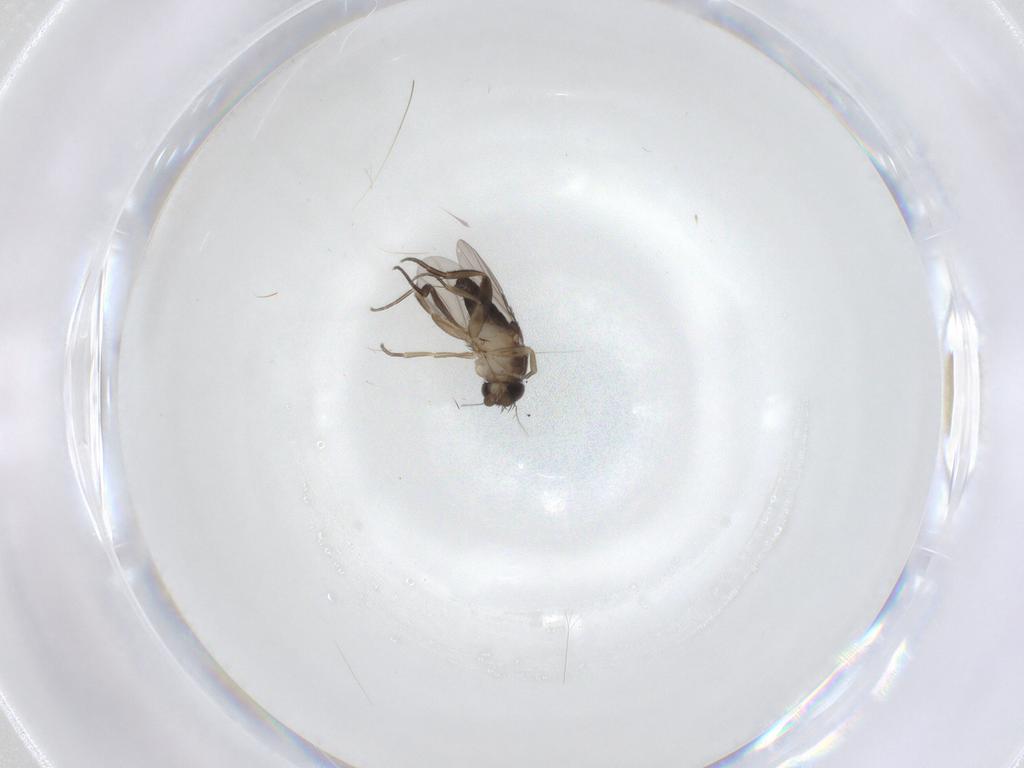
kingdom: Animalia
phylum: Arthropoda
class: Insecta
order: Diptera
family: Phoridae
